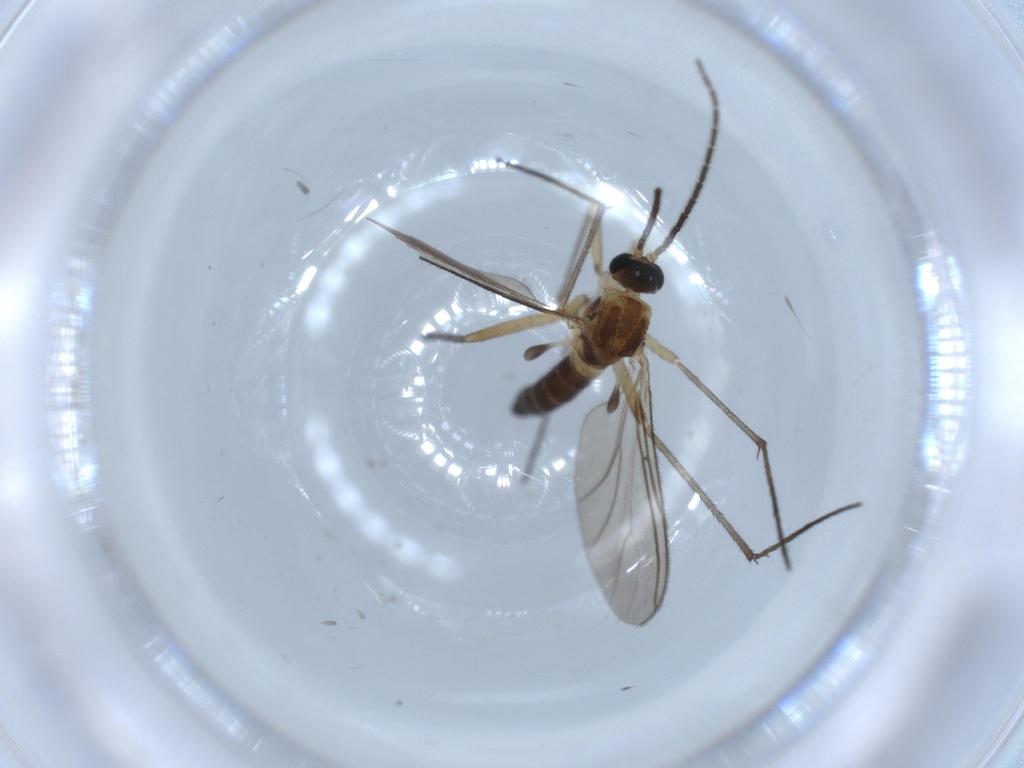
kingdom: Animalia
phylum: Arthropoda
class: Insecta
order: Diptera
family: Sciaridae
